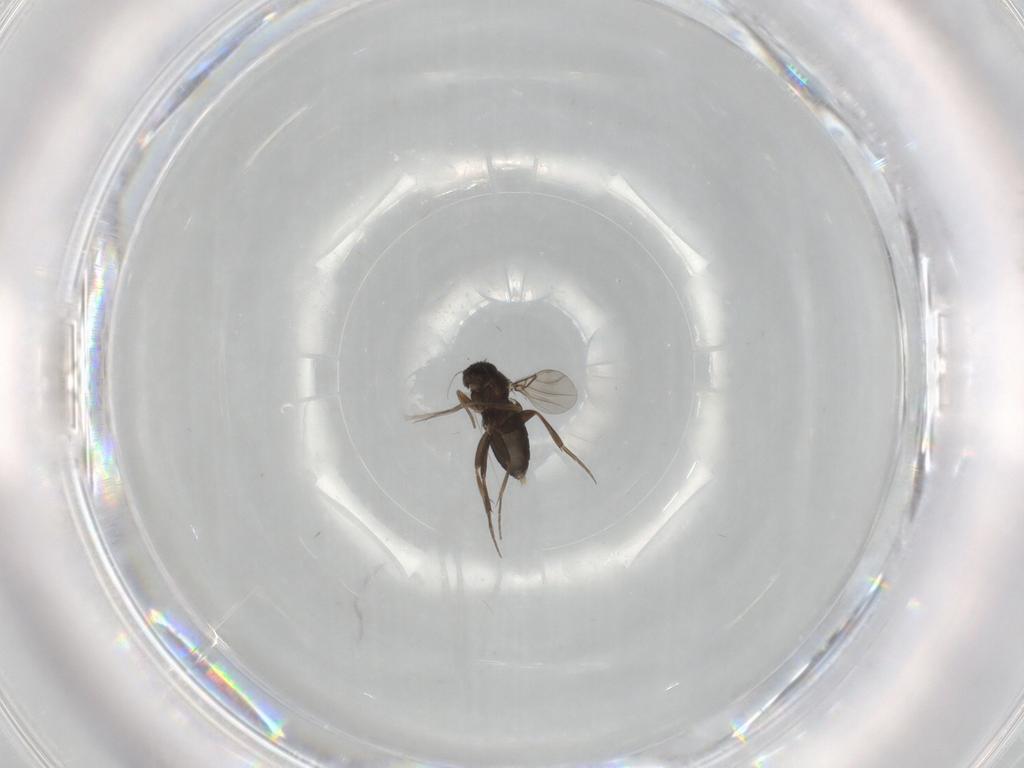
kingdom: Animalia
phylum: Arthropoda
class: Insecta
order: Diptera
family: Phoridae
